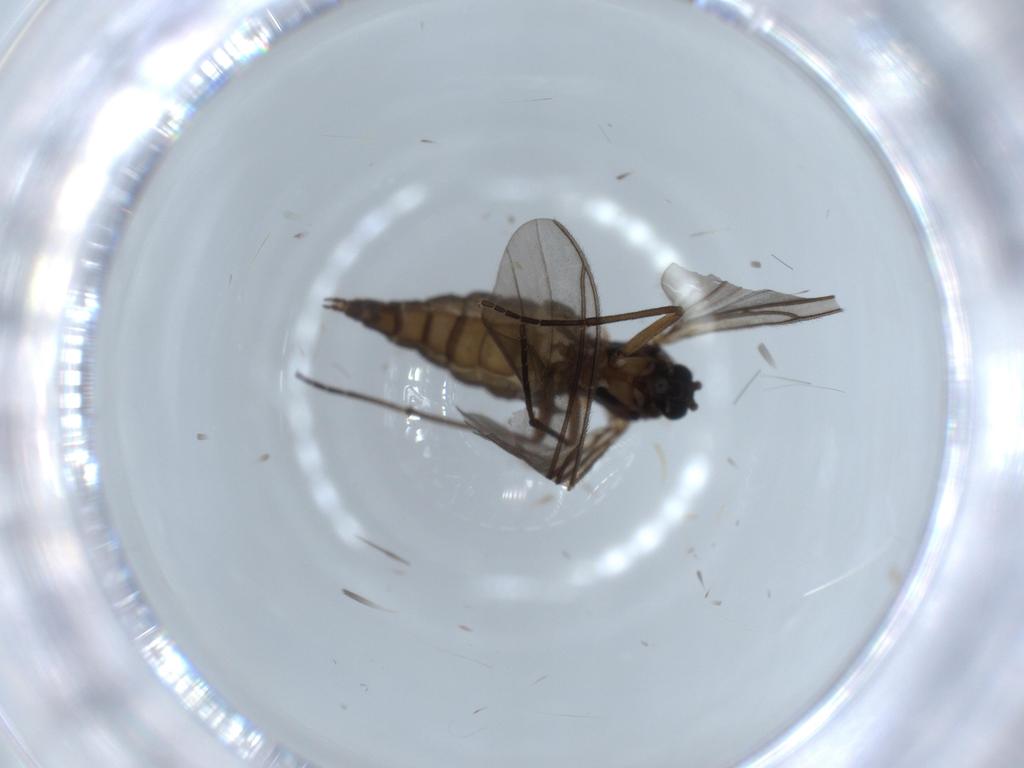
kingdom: Animalia
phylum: Arthropoda
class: Insecta
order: Diptera
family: Sciaridae
